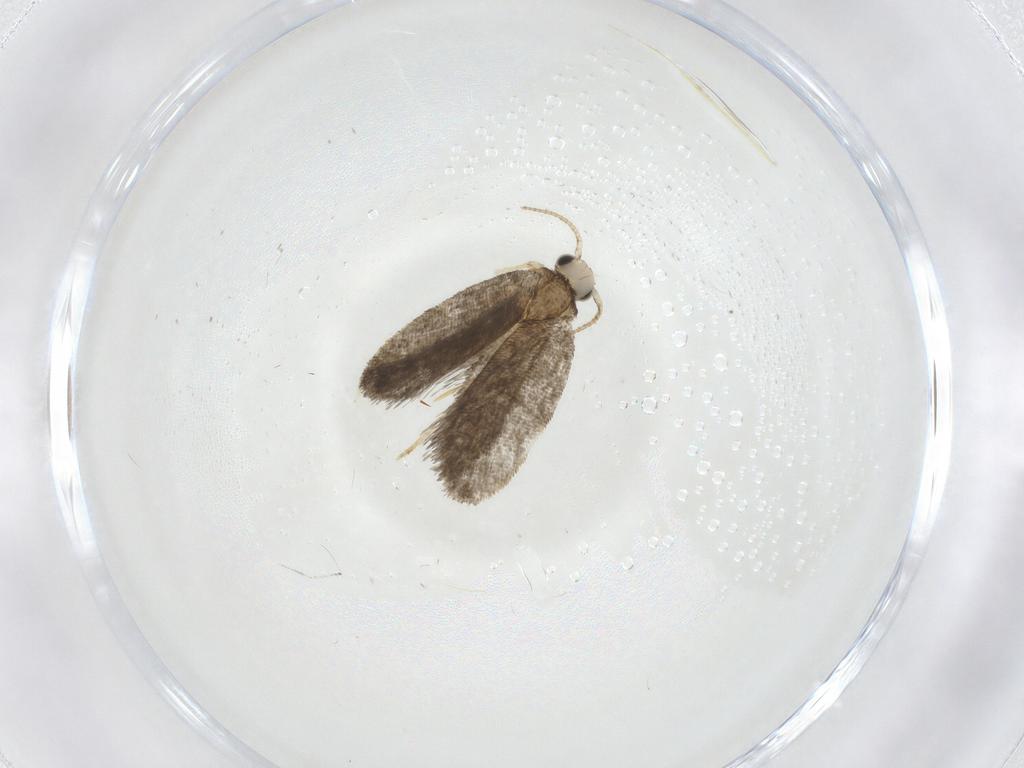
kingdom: Animalia
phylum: Arthropoda
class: Insecta
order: Lepidoptera
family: Psychidae
